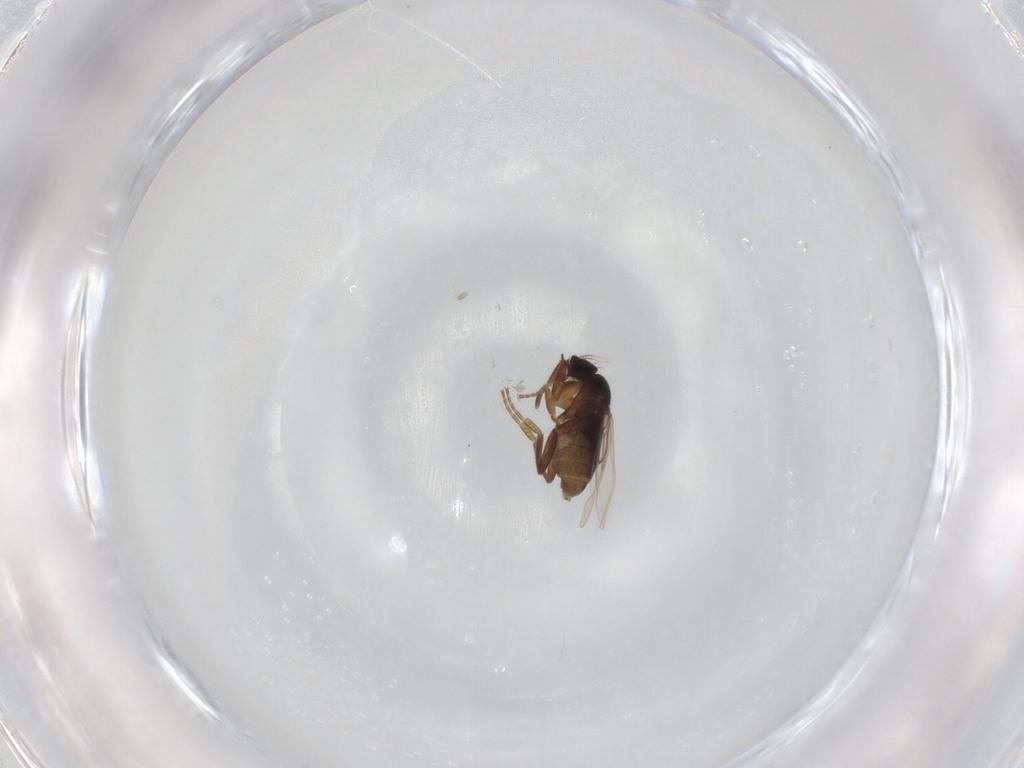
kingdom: Animalia
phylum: Arthropoda
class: Insecta
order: Diptera
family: Phoridae
